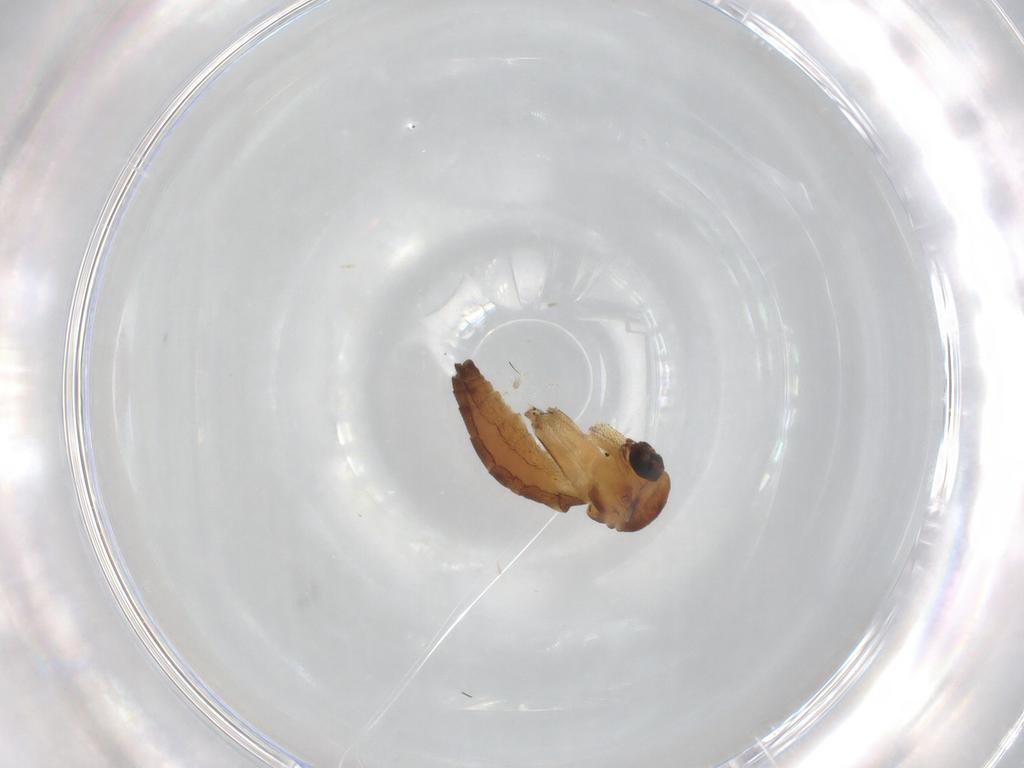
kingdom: Animalia
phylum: Arthropoda
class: Insecta
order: Diptera
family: Keroplatidae
